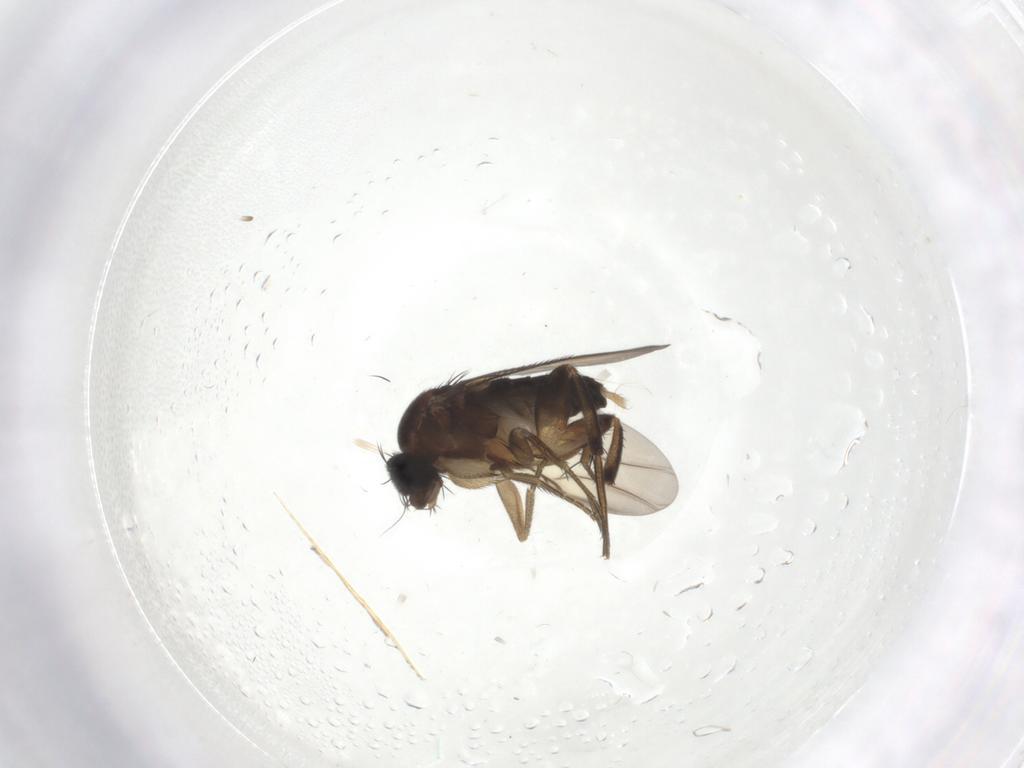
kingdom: Animalia
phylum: Arthropoda
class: Insecta
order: Diptera
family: Phoridae
